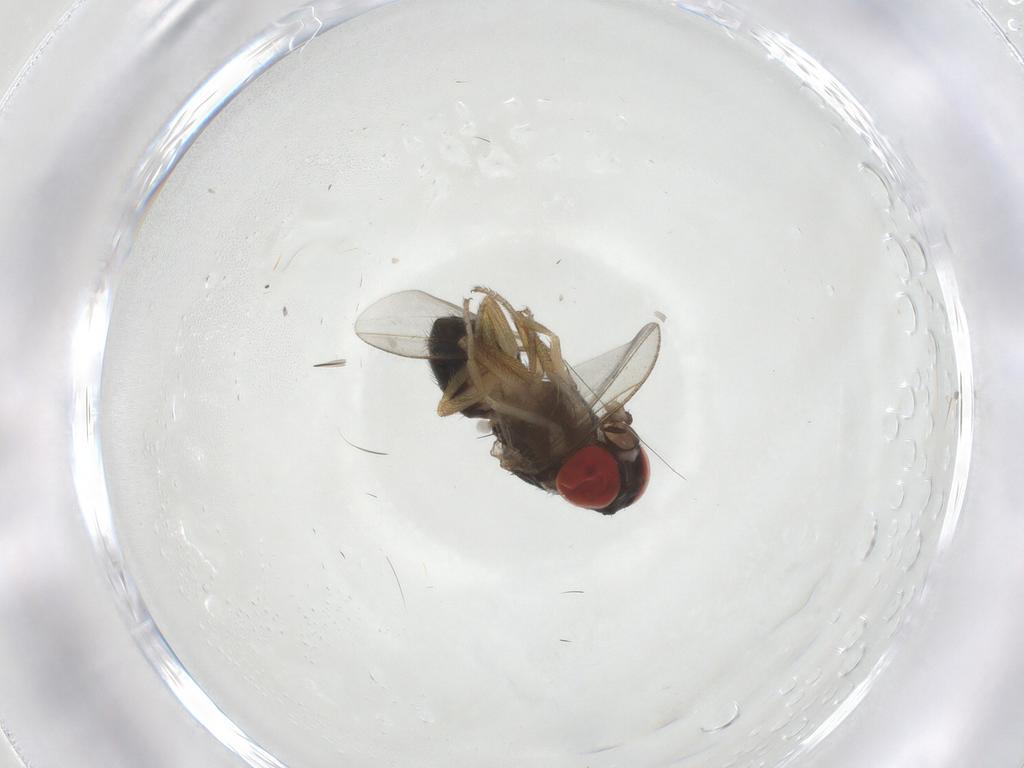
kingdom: Animalia
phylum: Arthropoda
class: Insecta
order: Diptera
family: Drosophilidae
